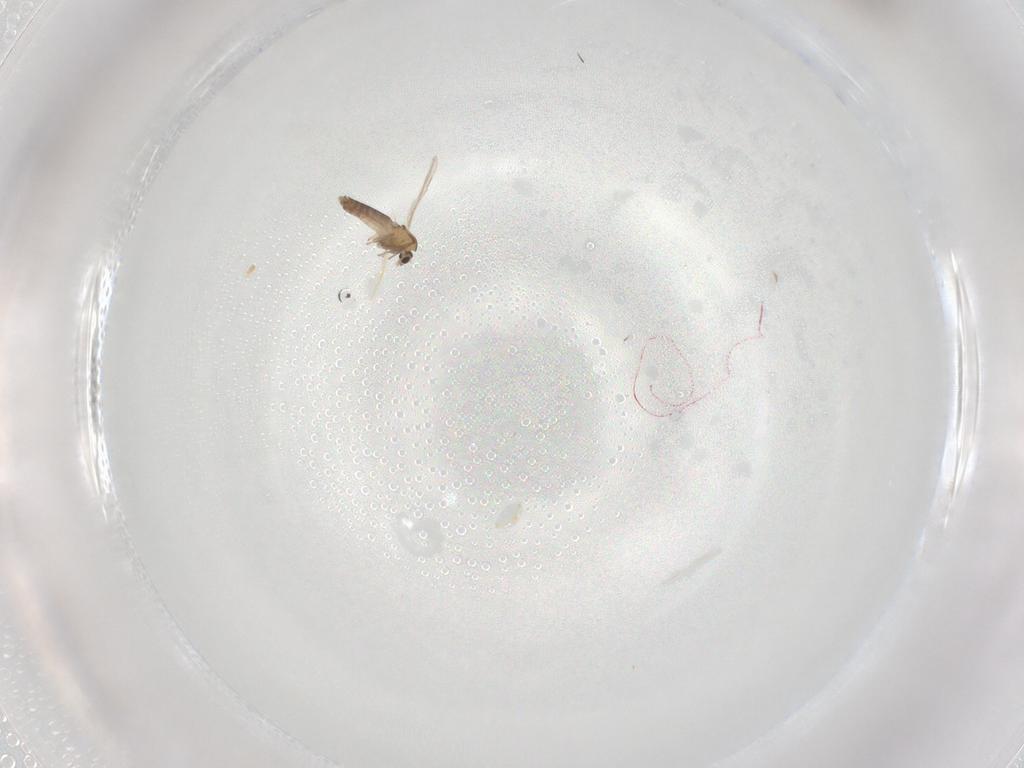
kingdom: Animalia
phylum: Arthropoda
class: Insecta
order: Diptera
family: Chironomidae
